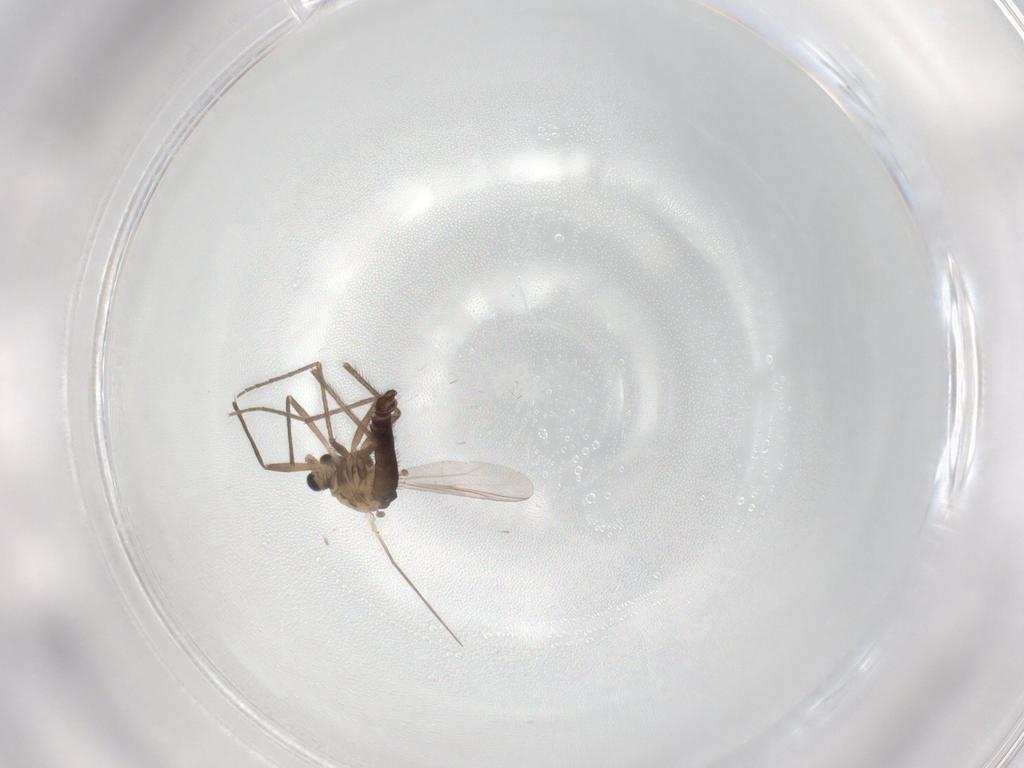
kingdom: Animalia
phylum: Arthropoda
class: Insecta
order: Diptera
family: Chironomidae
